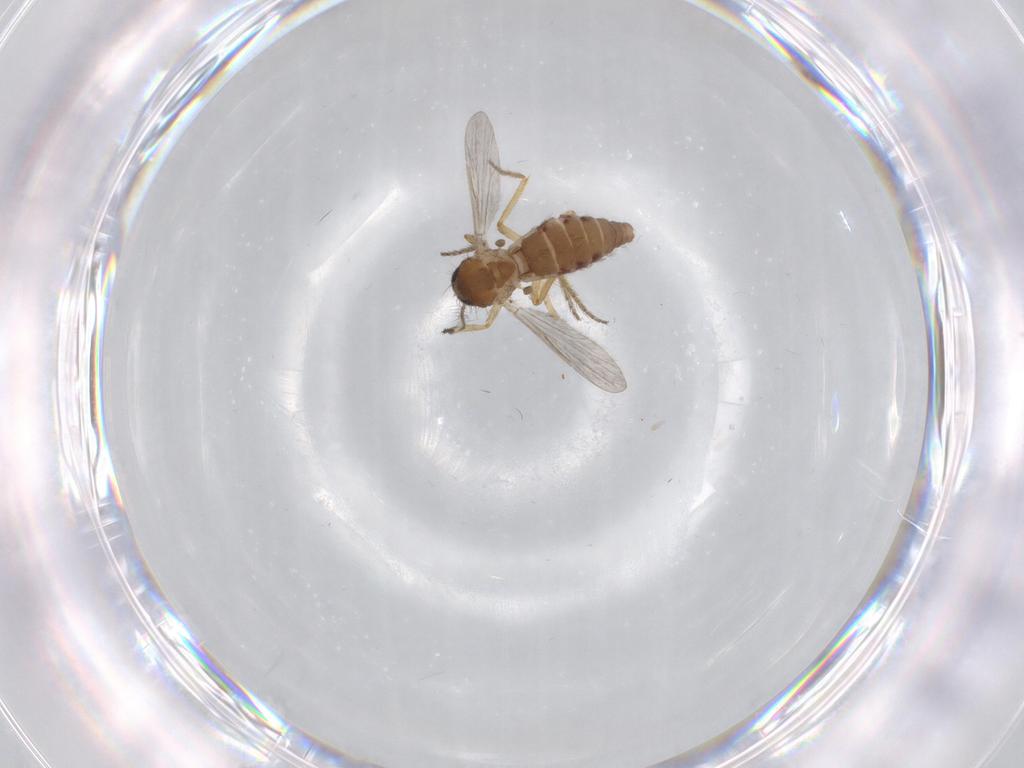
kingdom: Animalia
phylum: Arthropoda
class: Insecta
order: Diptera
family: Ceratopogonidae
